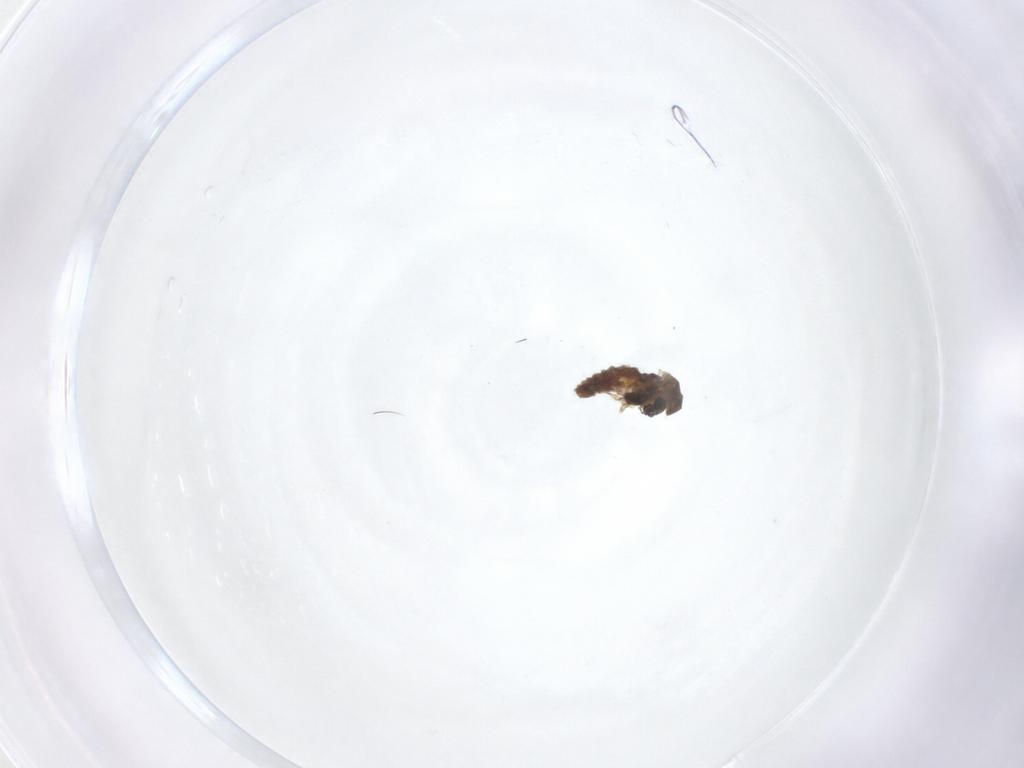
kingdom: Animalia
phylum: Arthropoda
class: Insecta
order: Diptera
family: Chironomidae
